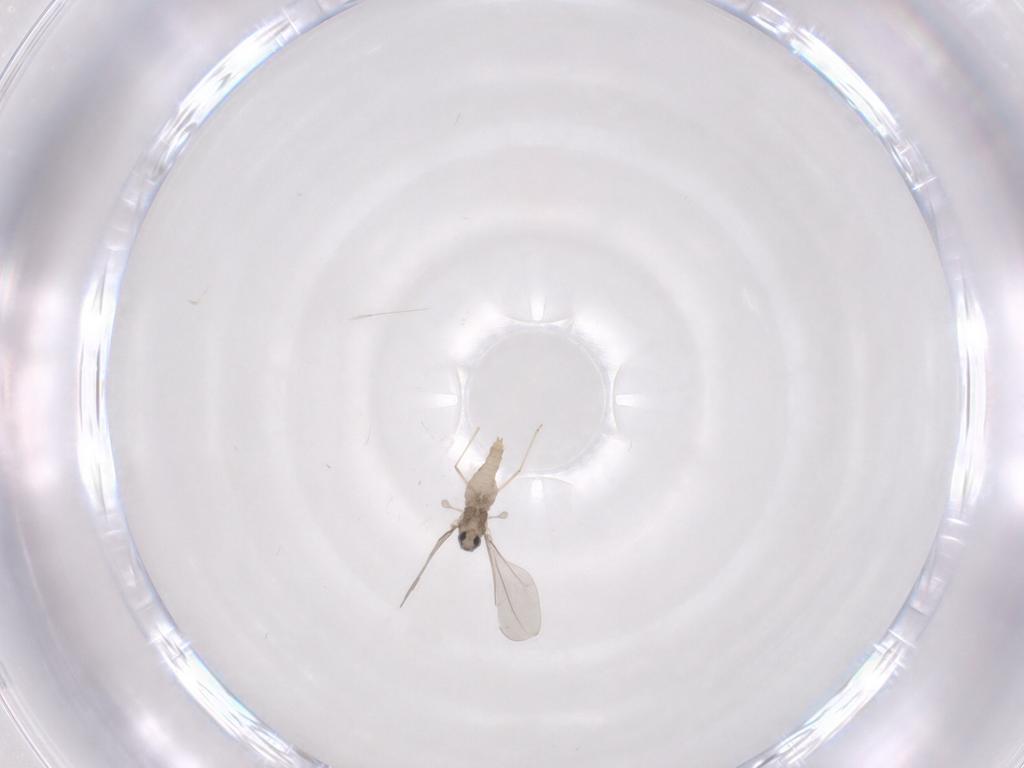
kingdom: Animalia
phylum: Arthropoda
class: Insecta
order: Diptera
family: Cecidomyiidae
